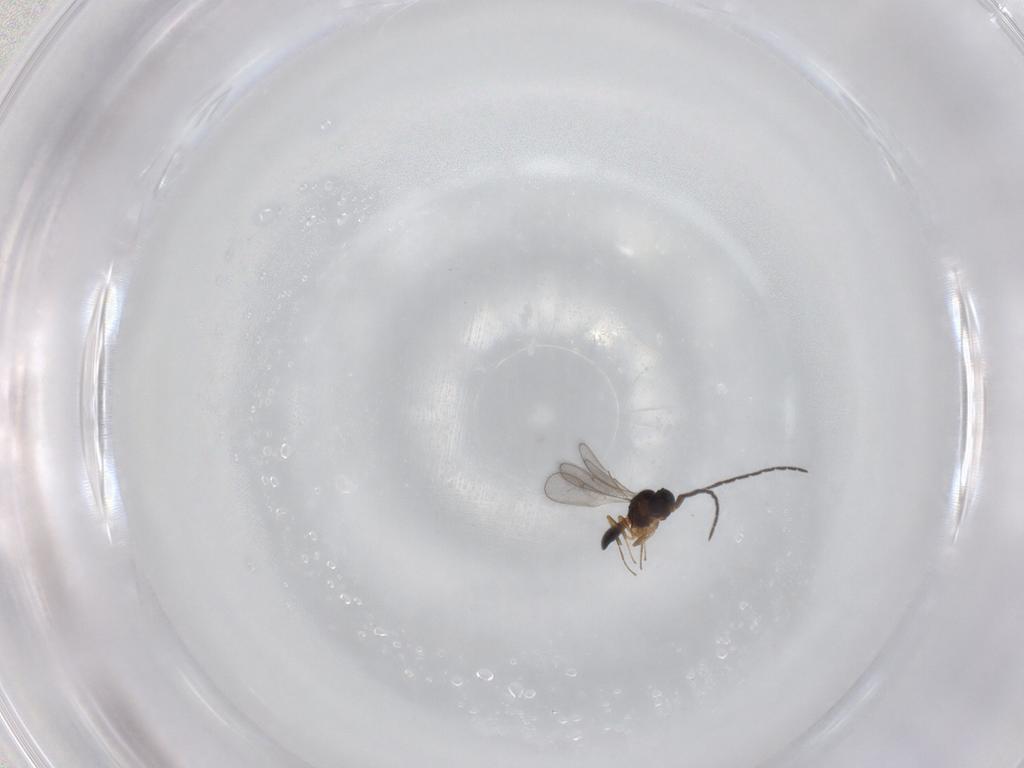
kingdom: Animalia
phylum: Arthropoda
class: Insecta
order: Hymenoptera
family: Scelionidae
